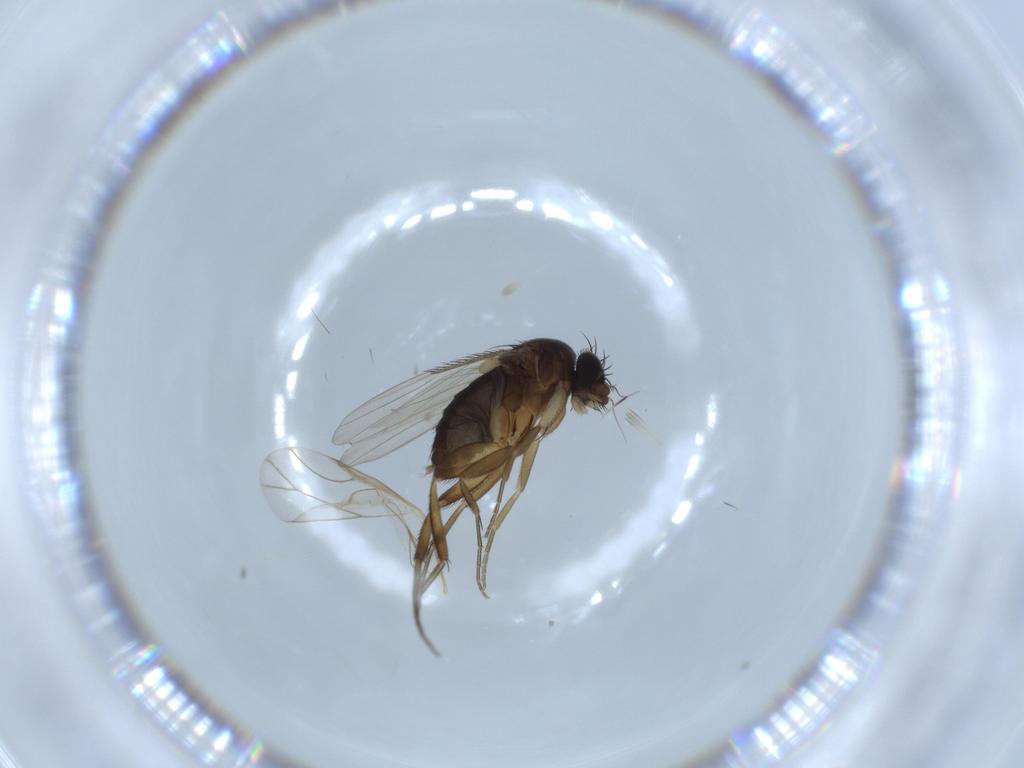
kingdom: Animalia
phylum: Arthropoda
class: Insecta
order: Diptera
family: Phoridae
